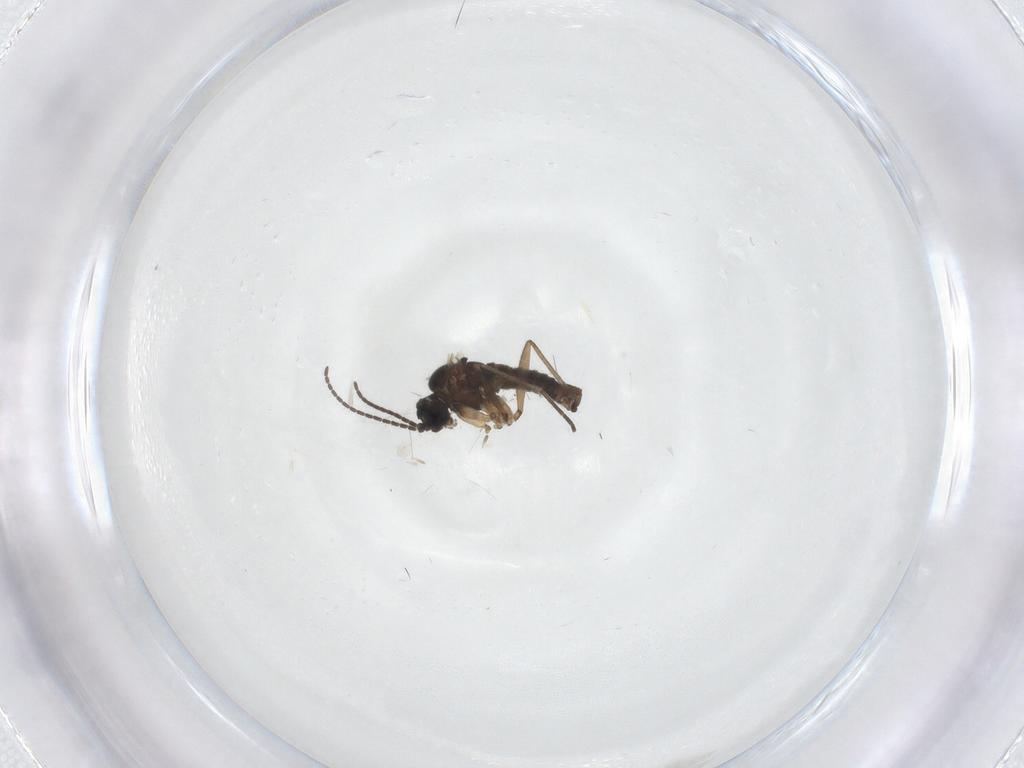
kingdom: Animalia
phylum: Arthropoda
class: Insecta
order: Diptera
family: Sciaridae
